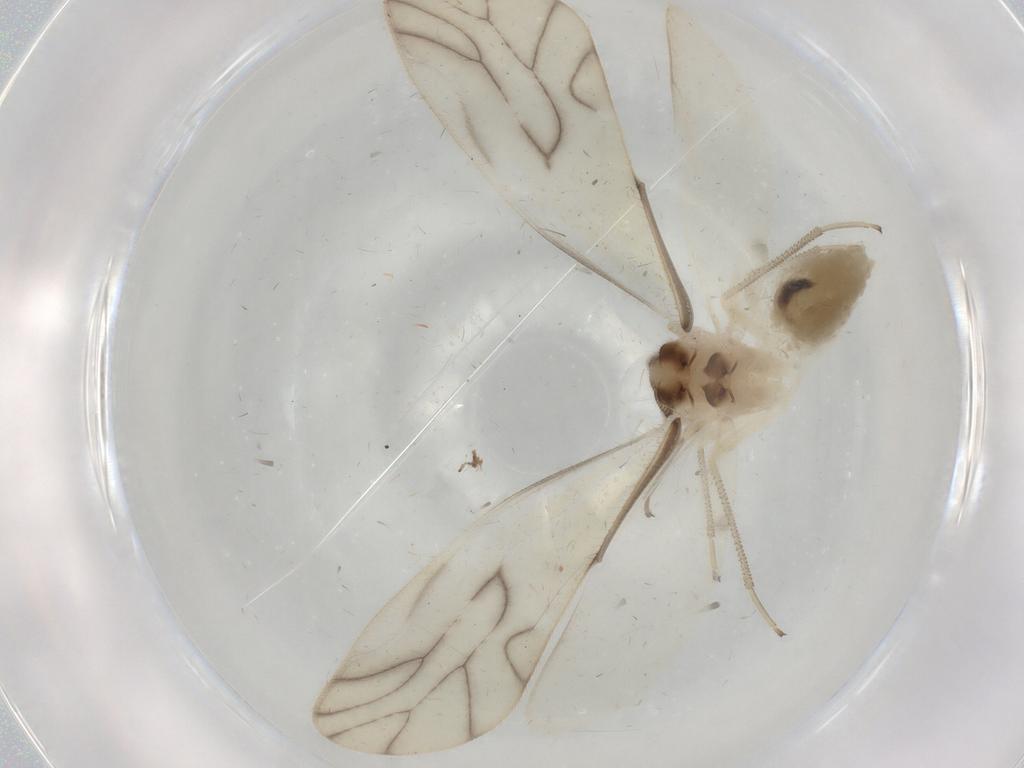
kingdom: Animalia
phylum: Arthropoda
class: Insecta
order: Psocodea
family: Caeciliusidae
